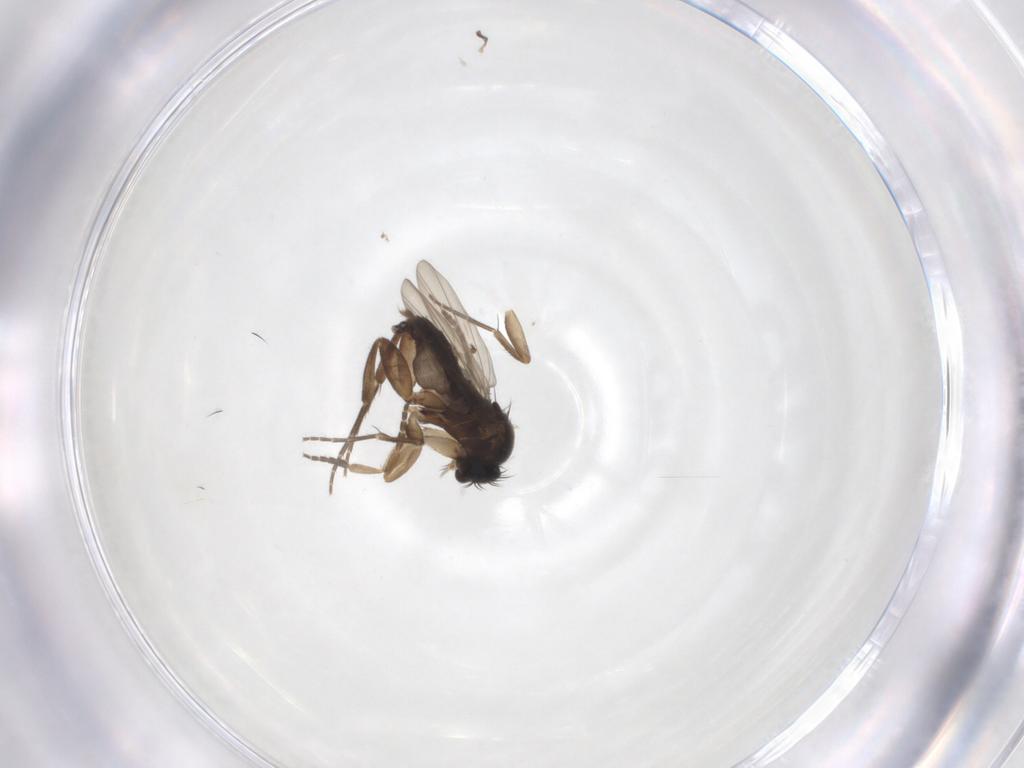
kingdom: Animalia
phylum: Arthropoda
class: Insecta
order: Diptera
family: Phoridae
